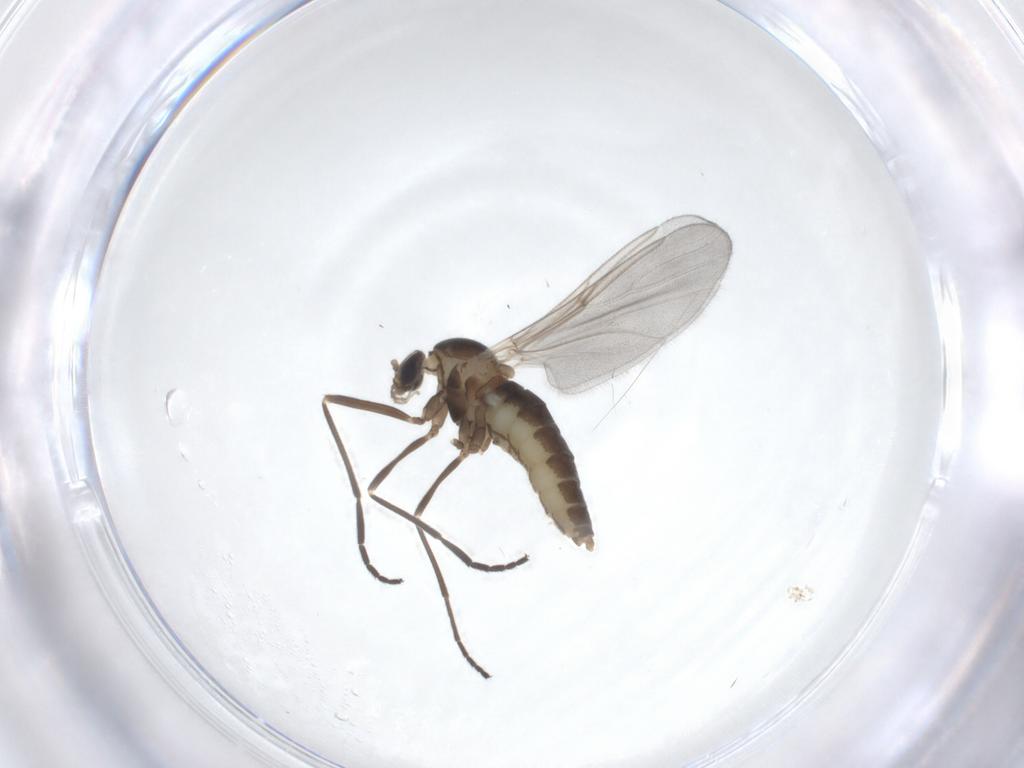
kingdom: Animalia
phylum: Arthropoda
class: Insecta
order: Diptera
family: Cecidomyiidae
